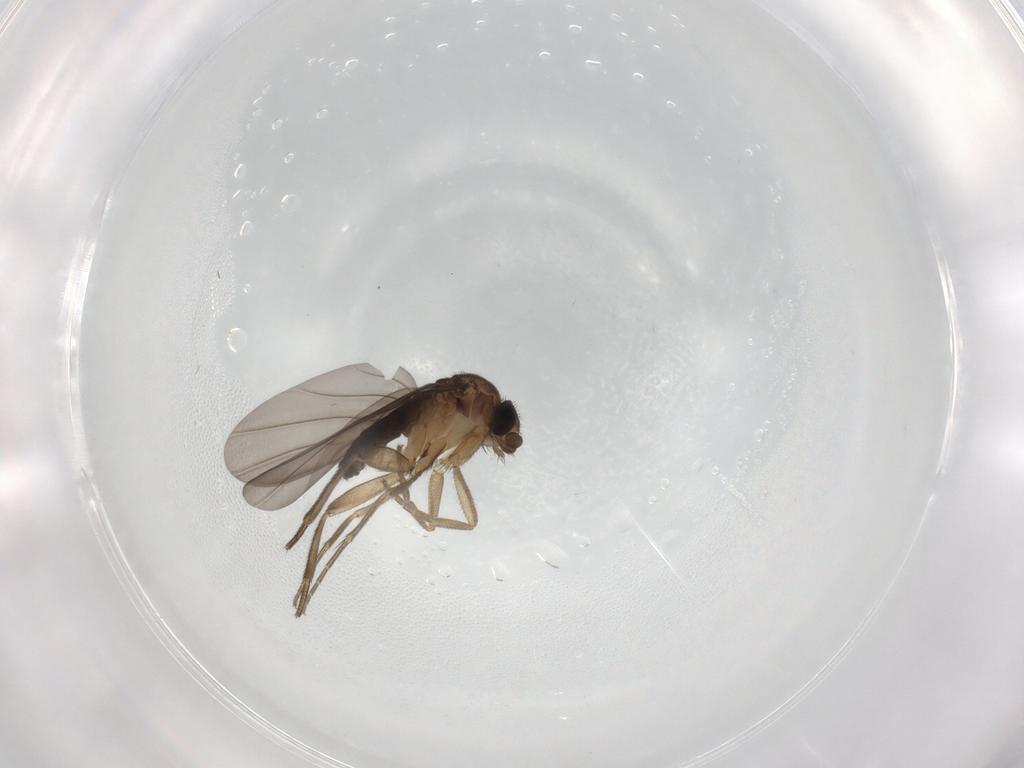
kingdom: Animalia
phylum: Arthropoda
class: Insecta
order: Diptera
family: Phoridae
